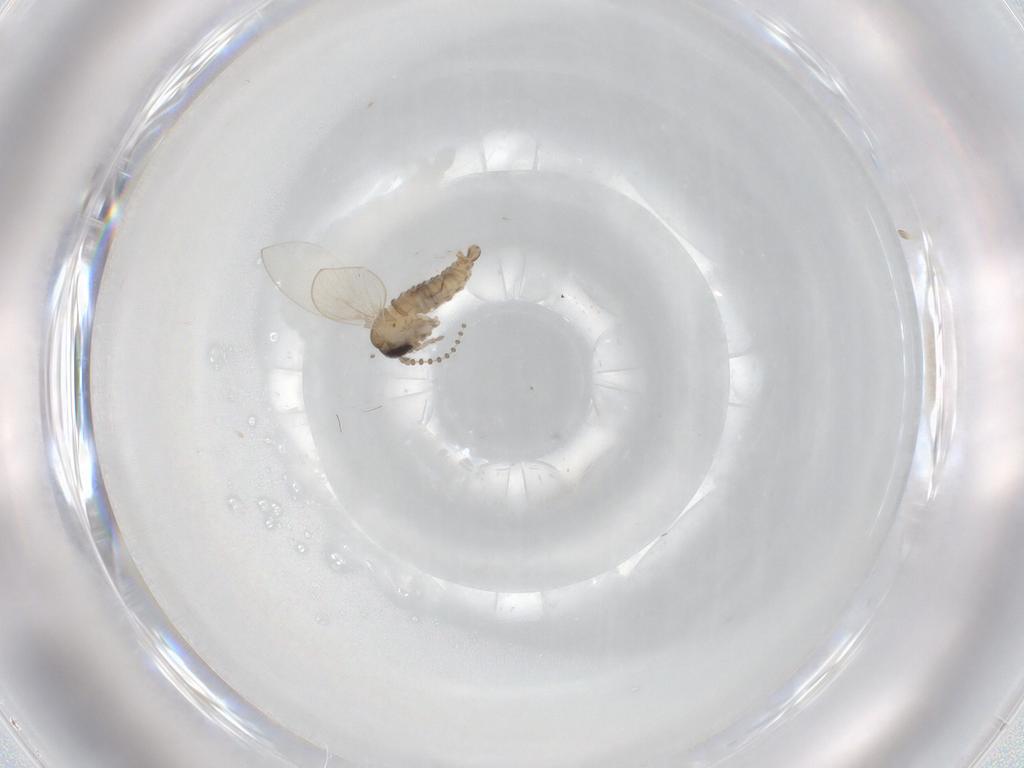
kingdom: Animalia
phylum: Arthropoda
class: Insecta
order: Diptera
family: Psychodidae
